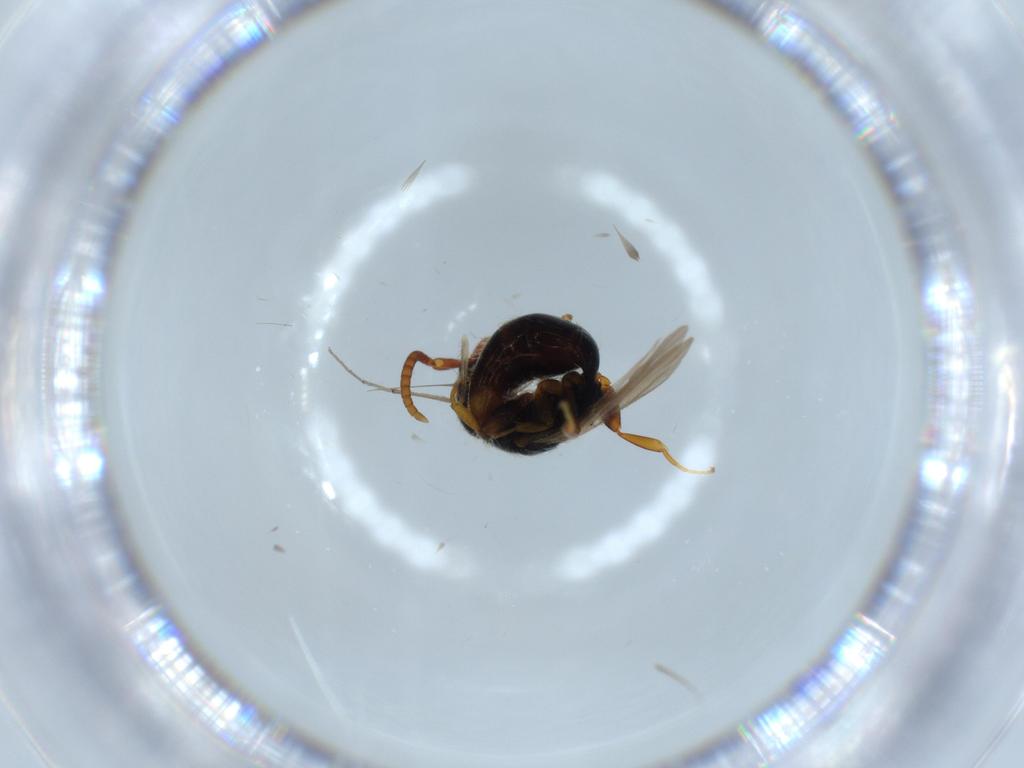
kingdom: Animalia
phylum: Arthropoda
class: Insecta
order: Hymenoptera
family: Bethylidae
